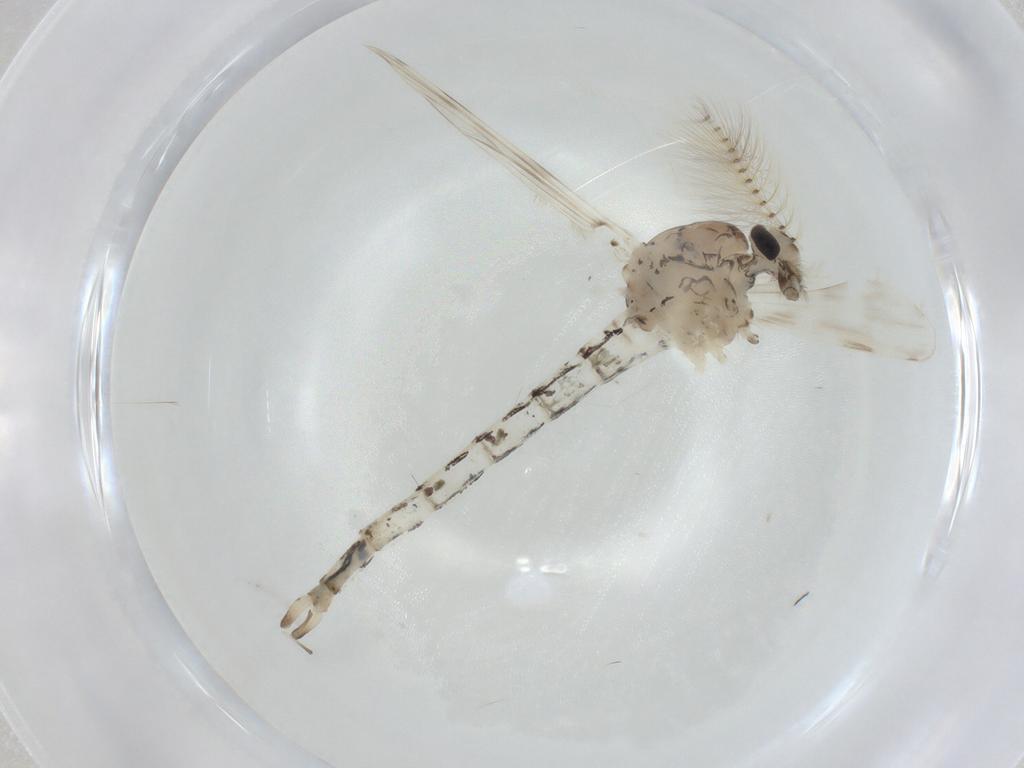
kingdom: Animalia
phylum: Arthropoda
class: Insecta
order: Diptera
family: Chaoboridae
